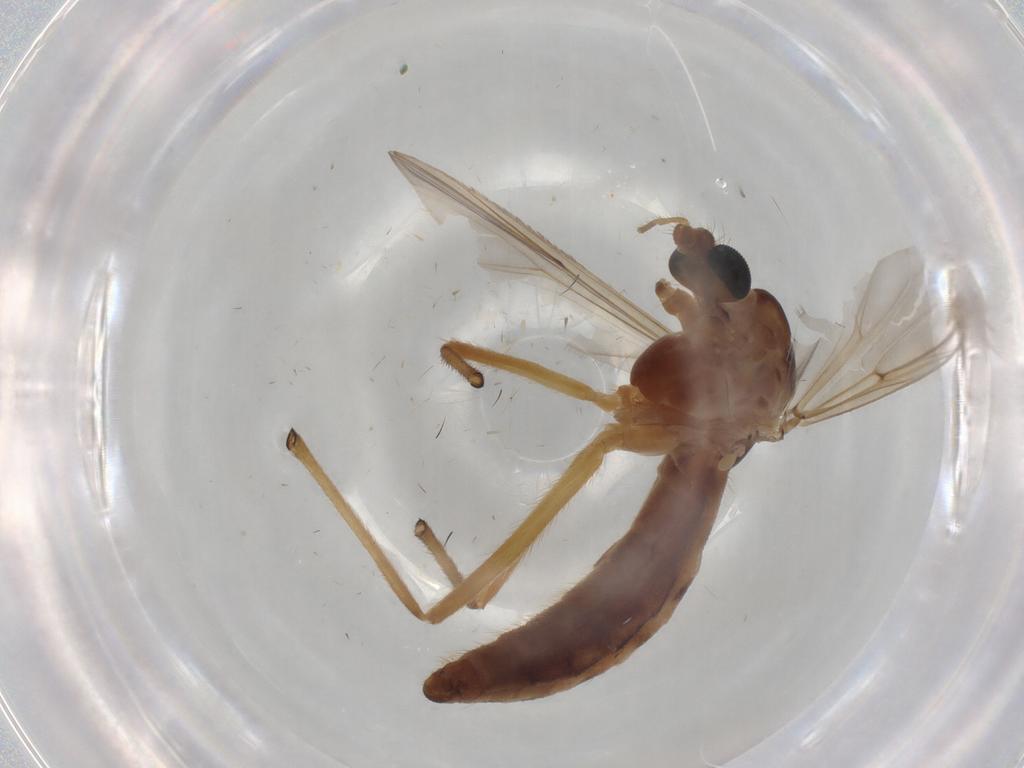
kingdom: Animalia
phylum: Arthropoda
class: Insecta
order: Diptera
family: Chironomidae
